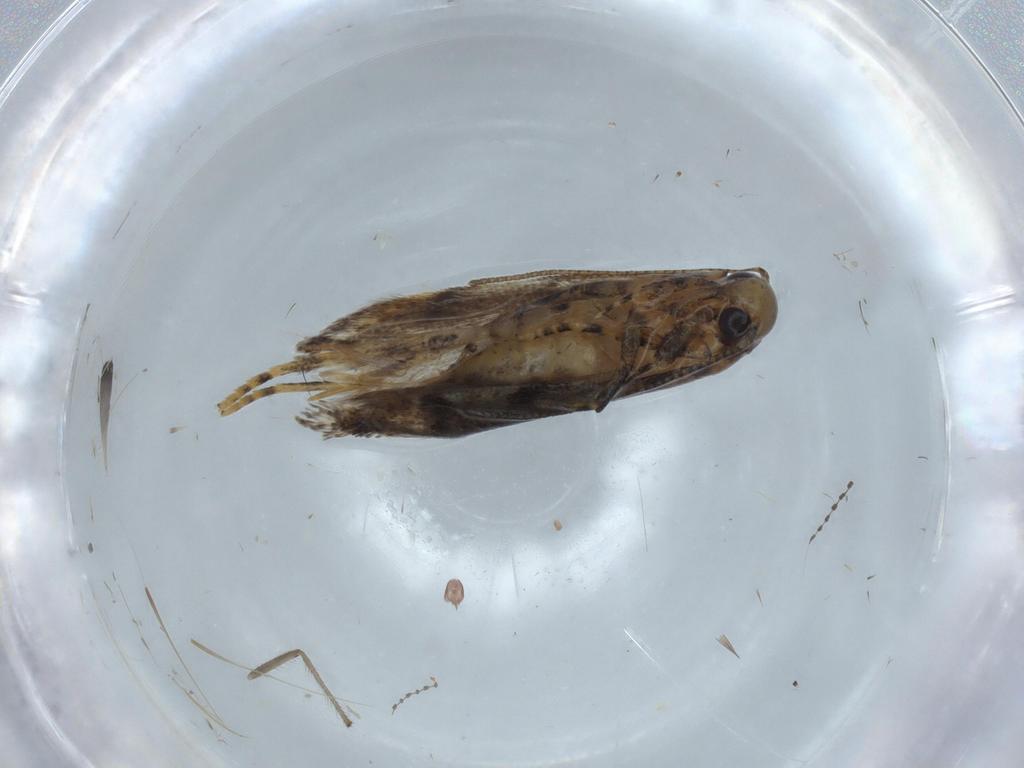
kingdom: Animalia
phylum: Arthropoda
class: Insecta
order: Lepidoptera
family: Gelechiidae
